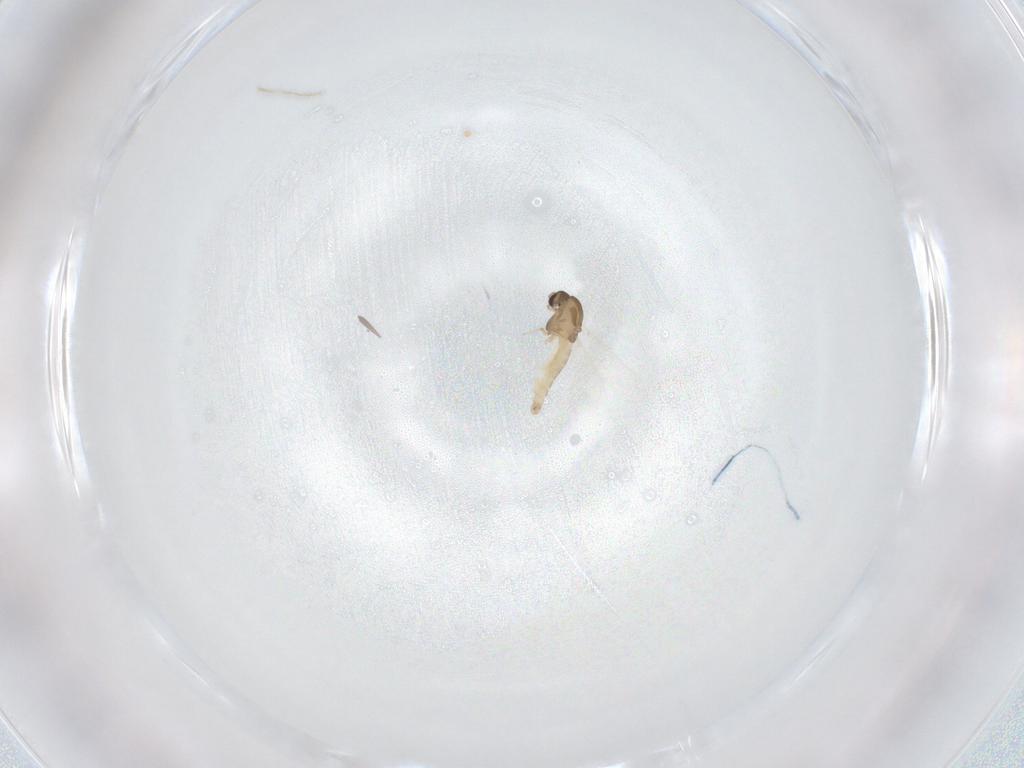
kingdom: Animalia
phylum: Arthropoda
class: Insecta
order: Diptera
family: Chironomidae
